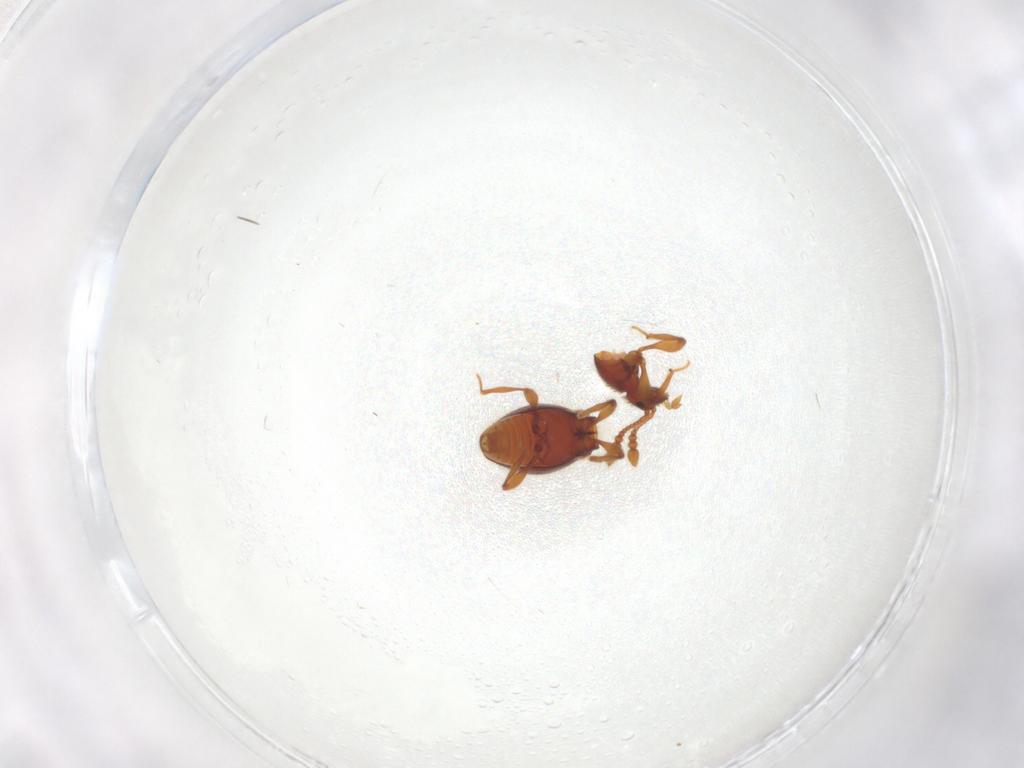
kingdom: Animalia
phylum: Arthropoda
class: Insecta
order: Coleoptera
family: Staphylinidae
